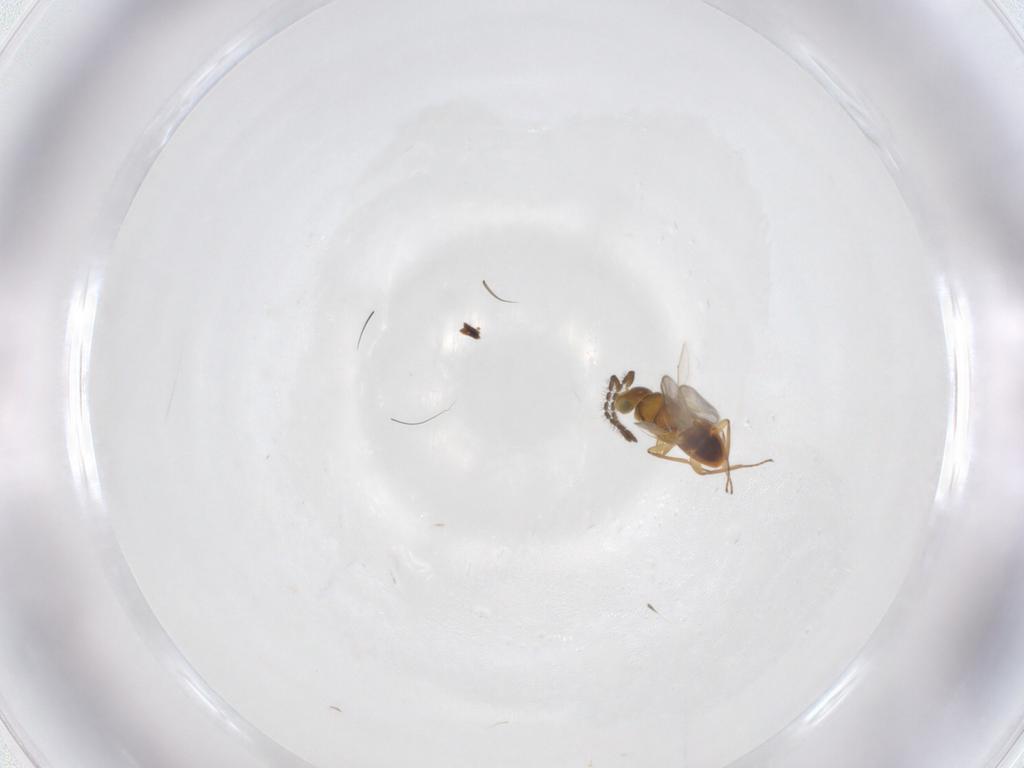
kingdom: Animalia
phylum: Arthropoda
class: Insecta
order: Hymenoptera
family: Encyrtidae
